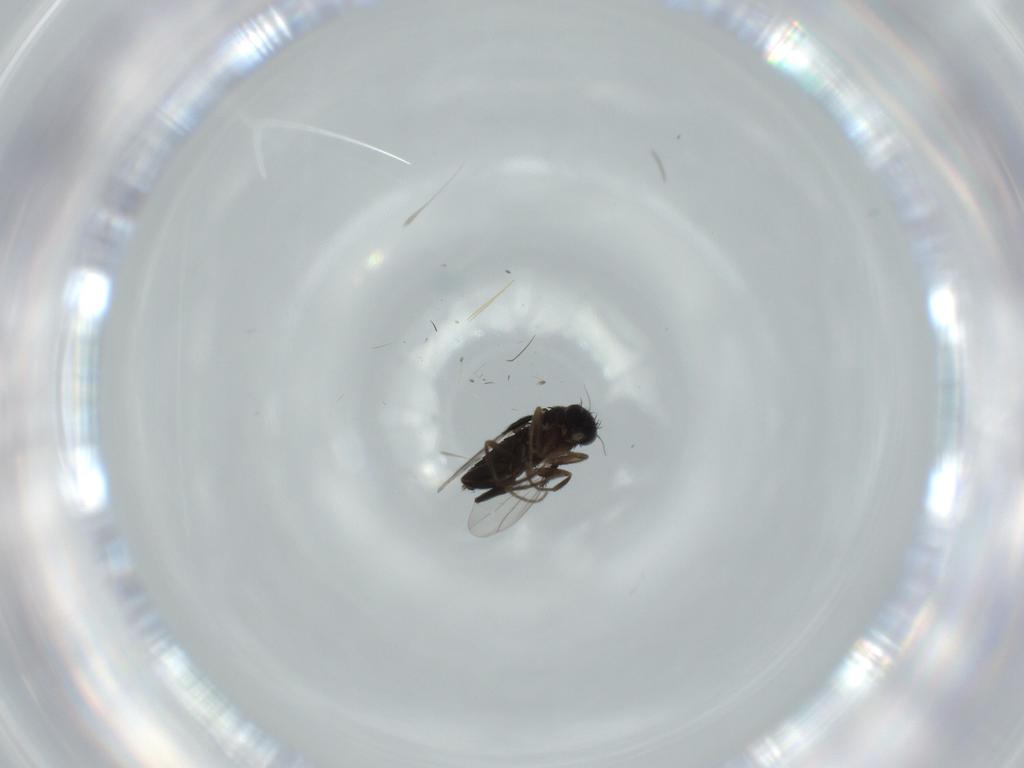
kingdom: Animalia
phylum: Arthropoda
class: Insecta
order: Diptera
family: Phoridae
